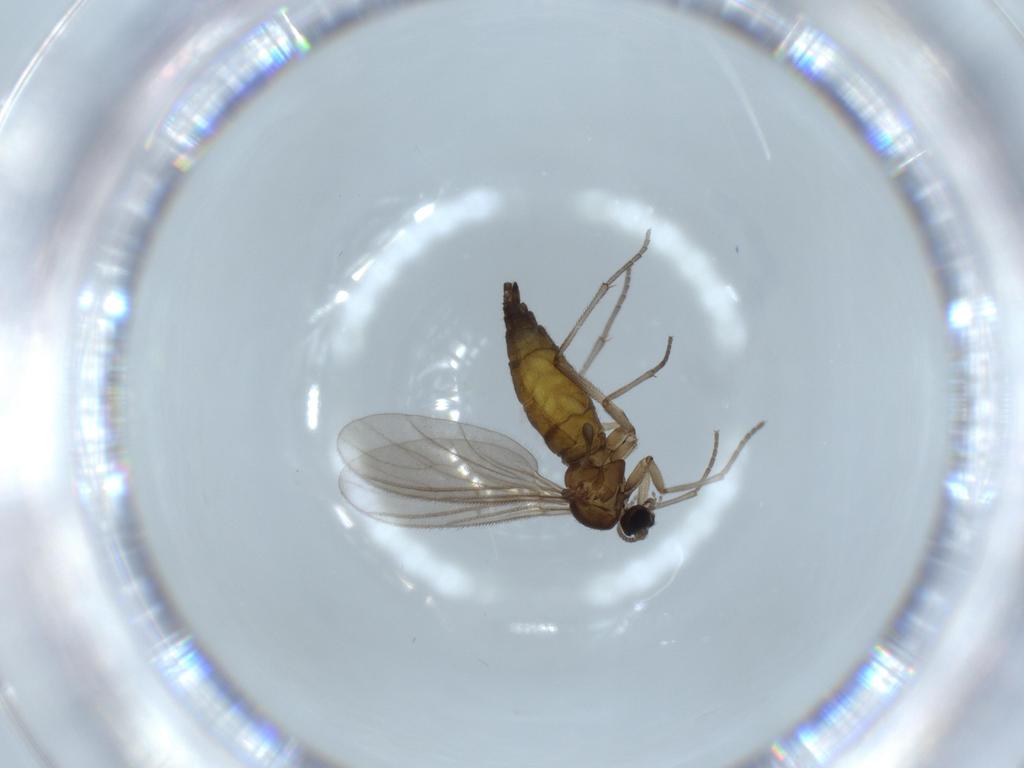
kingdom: Animalia
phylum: Arthropoda
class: Insecta
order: Diptera
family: Sciaridae
